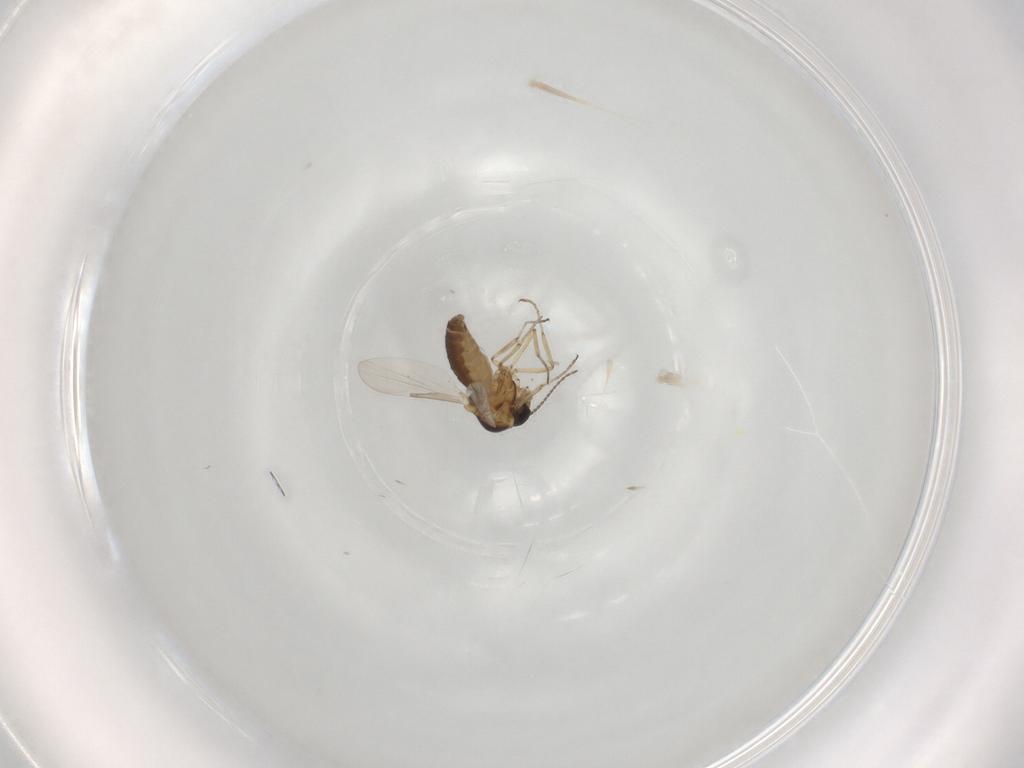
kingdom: Animalia
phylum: Arthropoda
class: Insecta
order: Diptera
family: Ceratopogonidae
